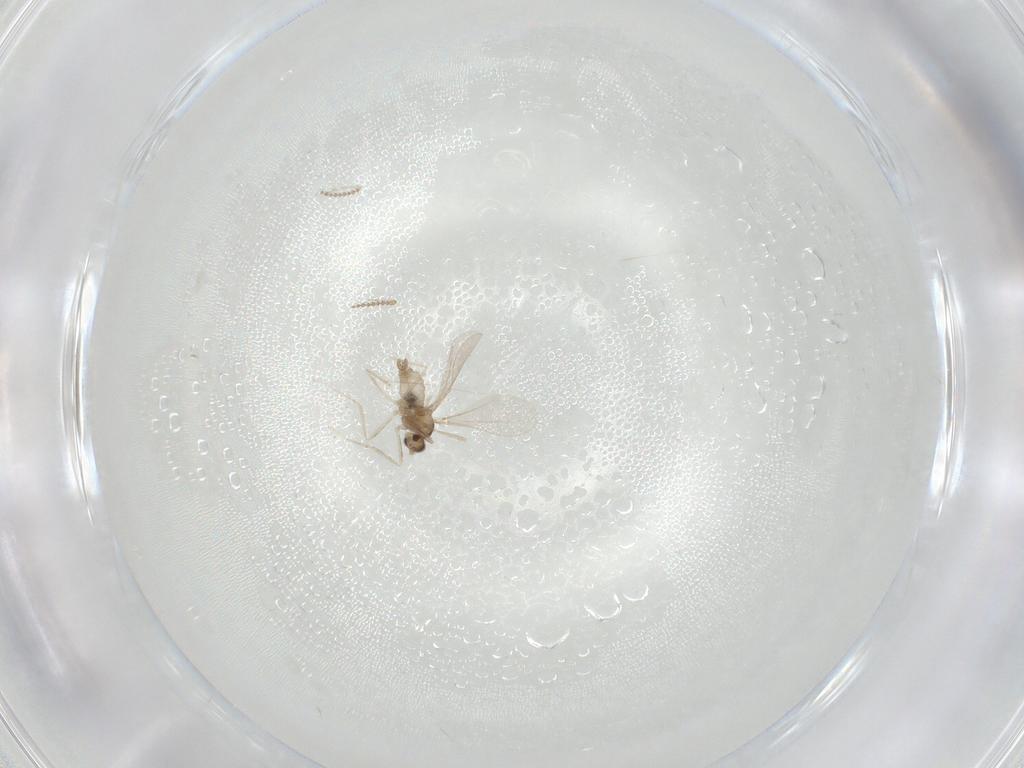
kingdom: Animalia
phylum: Arthropoda
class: Insecta
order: Diptera
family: Cecidomyiidae
